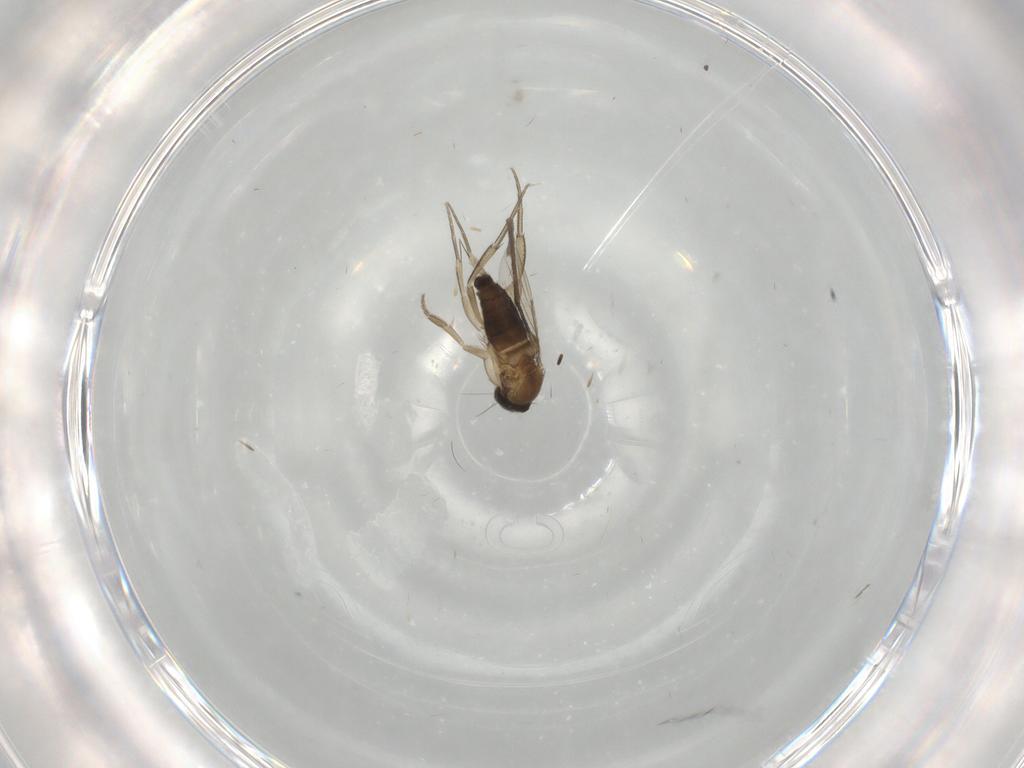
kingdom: Animalia
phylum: Arthropoda
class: Insecta
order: Diptera
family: Phoridae
